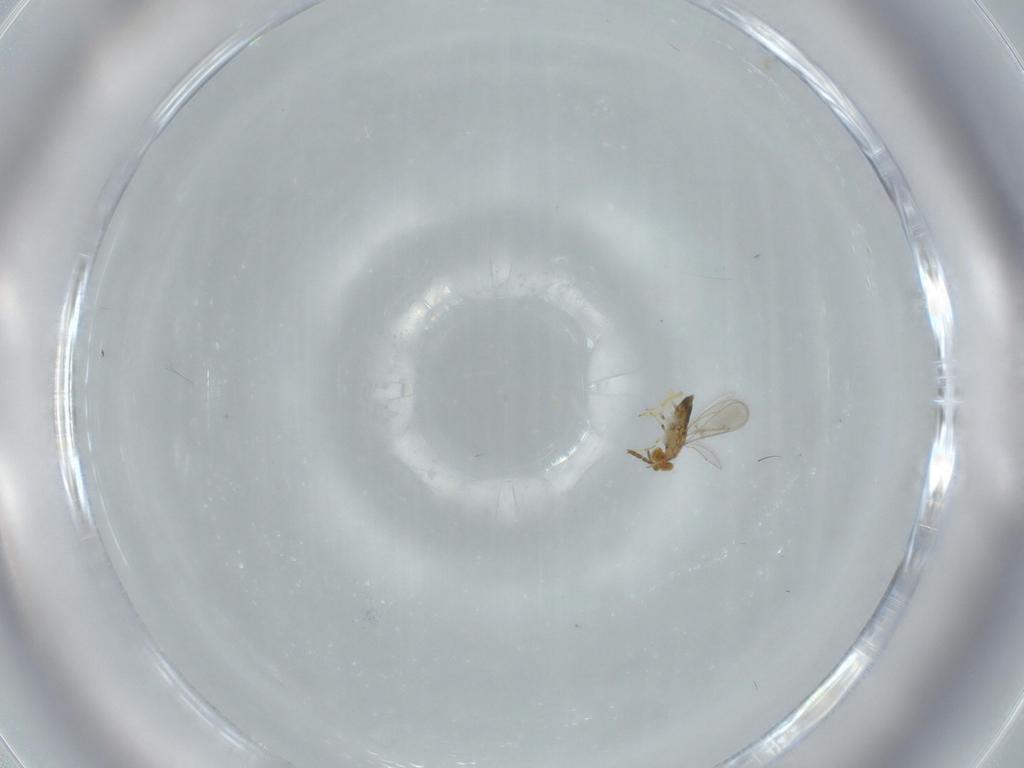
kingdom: Animalia
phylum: Arthropoda
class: Insecta
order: Hymenoptera
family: Aphelinidae
